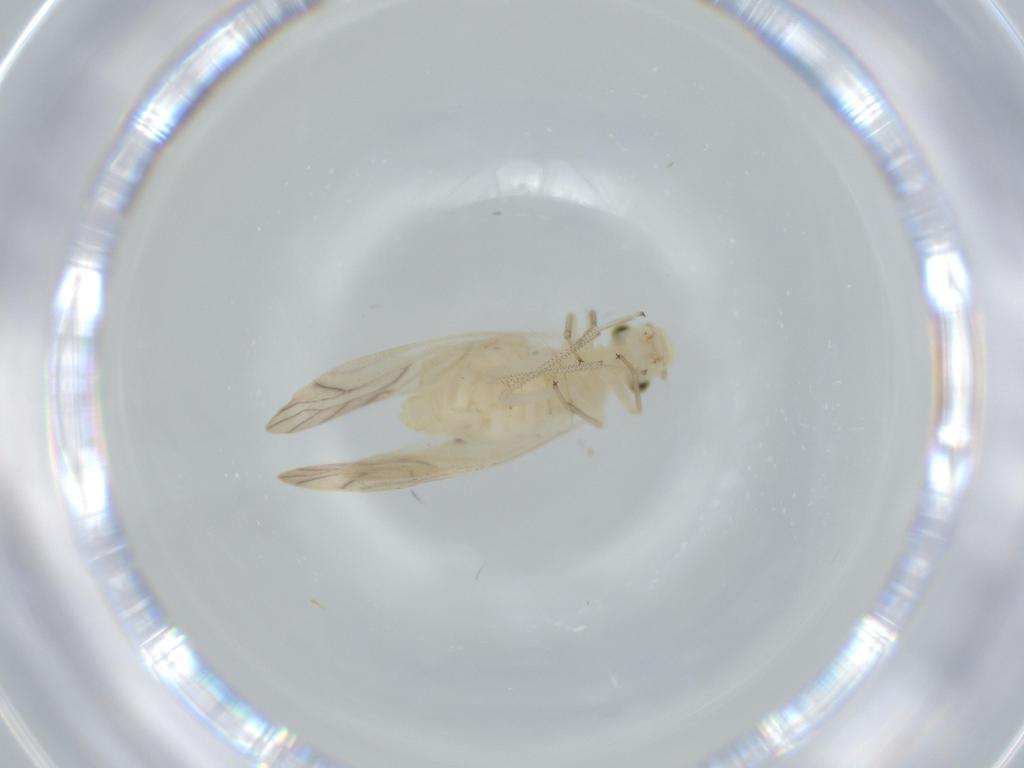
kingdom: Animalia
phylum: Arthropoda
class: Insecta
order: Psocodea
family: Caeciliusidae
